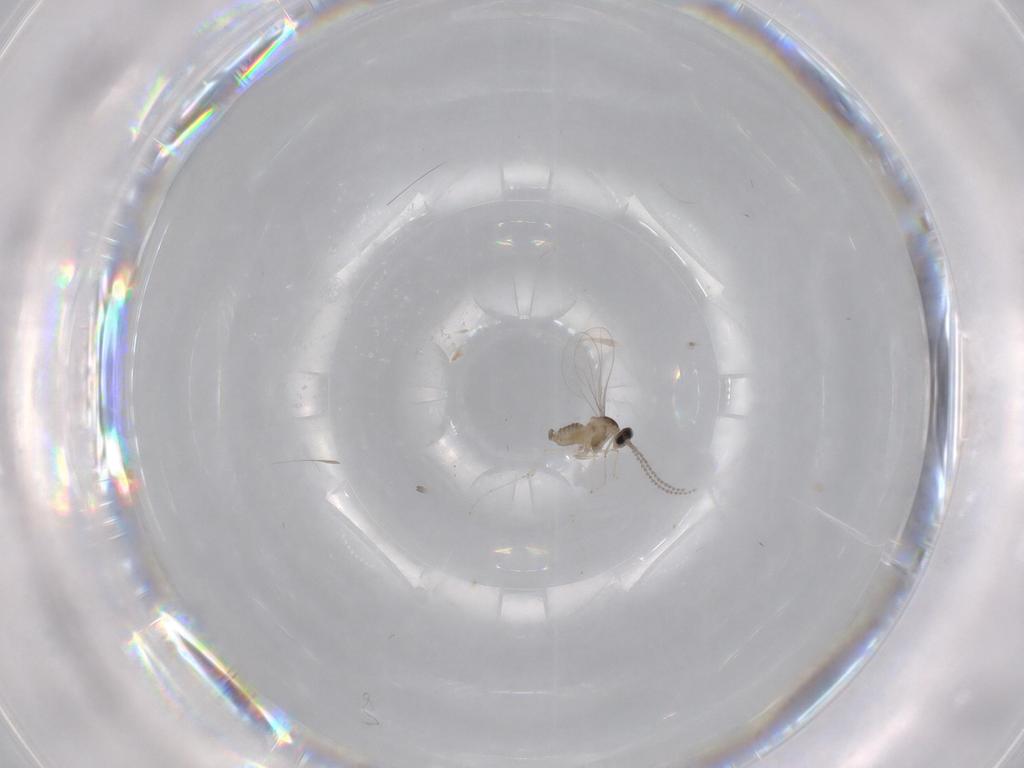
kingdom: Animalia
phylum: Arthropoda
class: Insecta
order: Diptera
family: Cecidomyiidae
